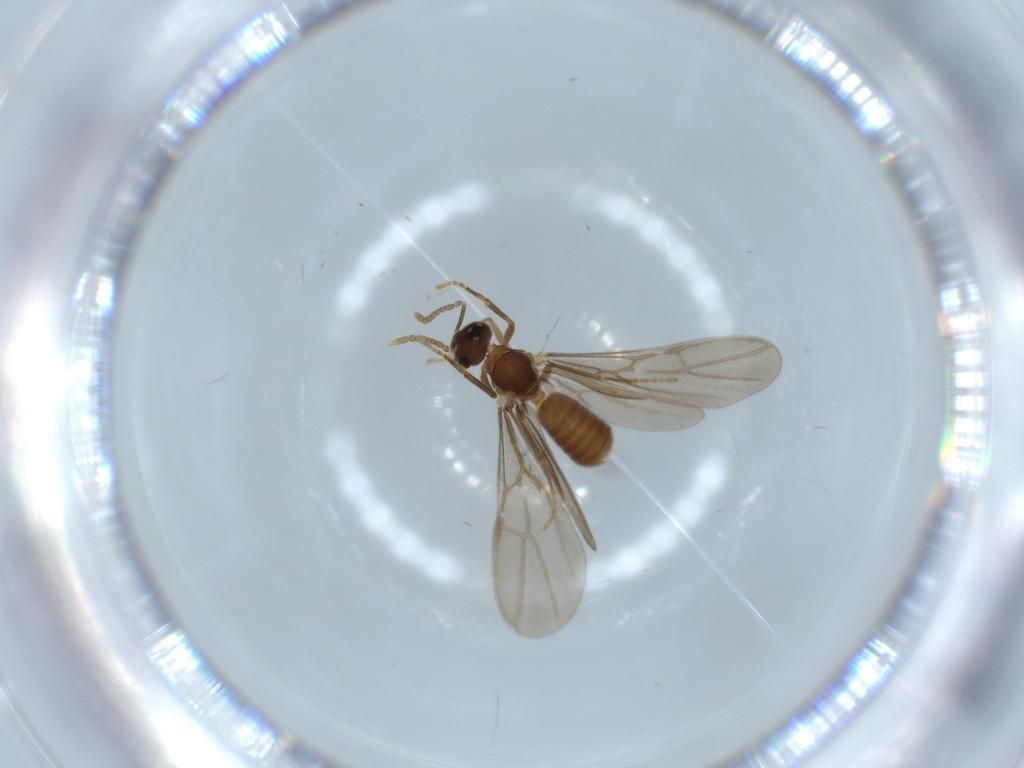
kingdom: Animalia
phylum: Arthropoda
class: Insecta
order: Hymenoptera
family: Formicidae
